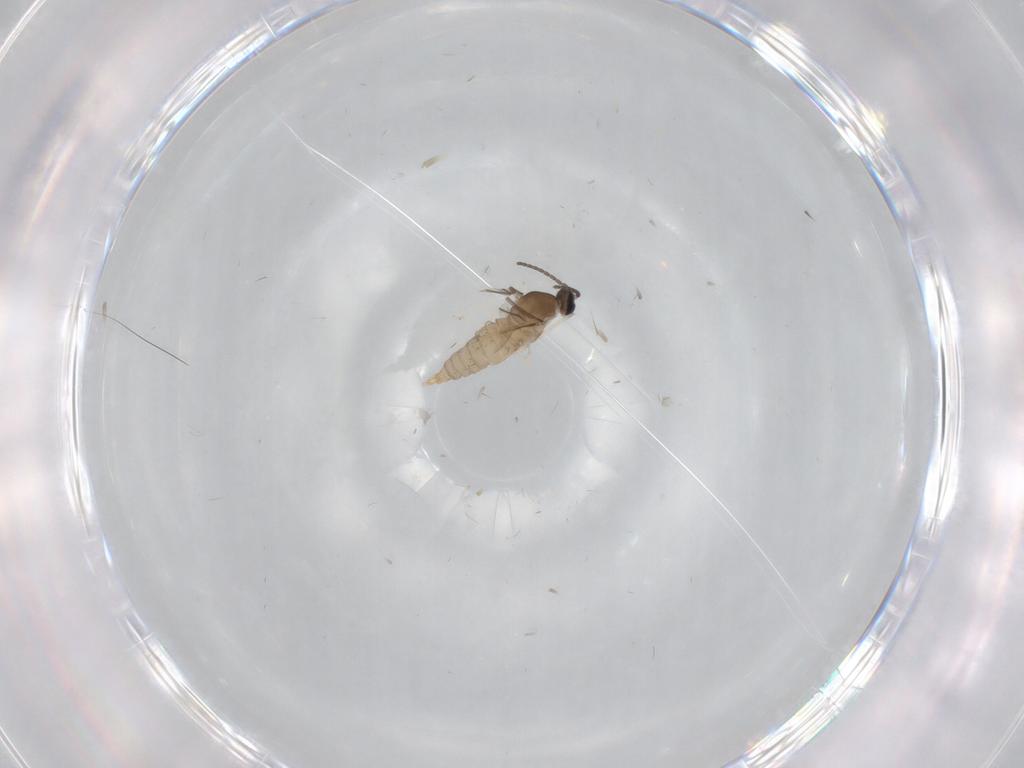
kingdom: Animalia
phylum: Arthropoda
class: Insecta
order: Diptera
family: Cecidomyiidae
